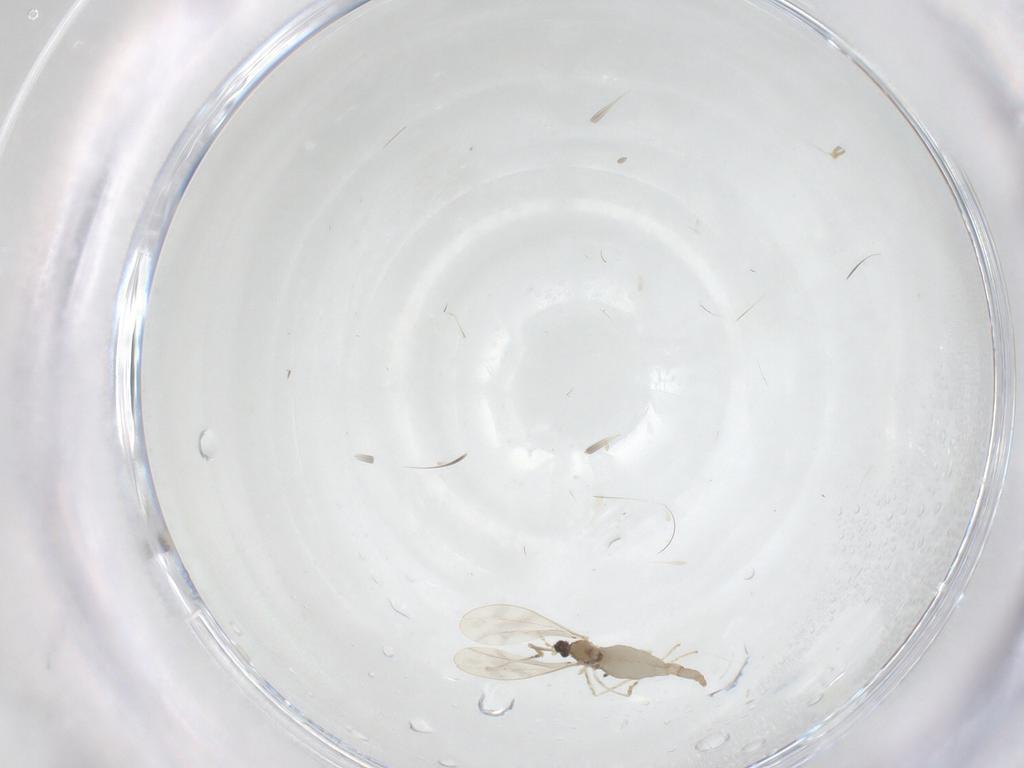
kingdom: Animalia
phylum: Arthropoda
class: Insecta
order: Diptera
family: Cecidomyiidae
